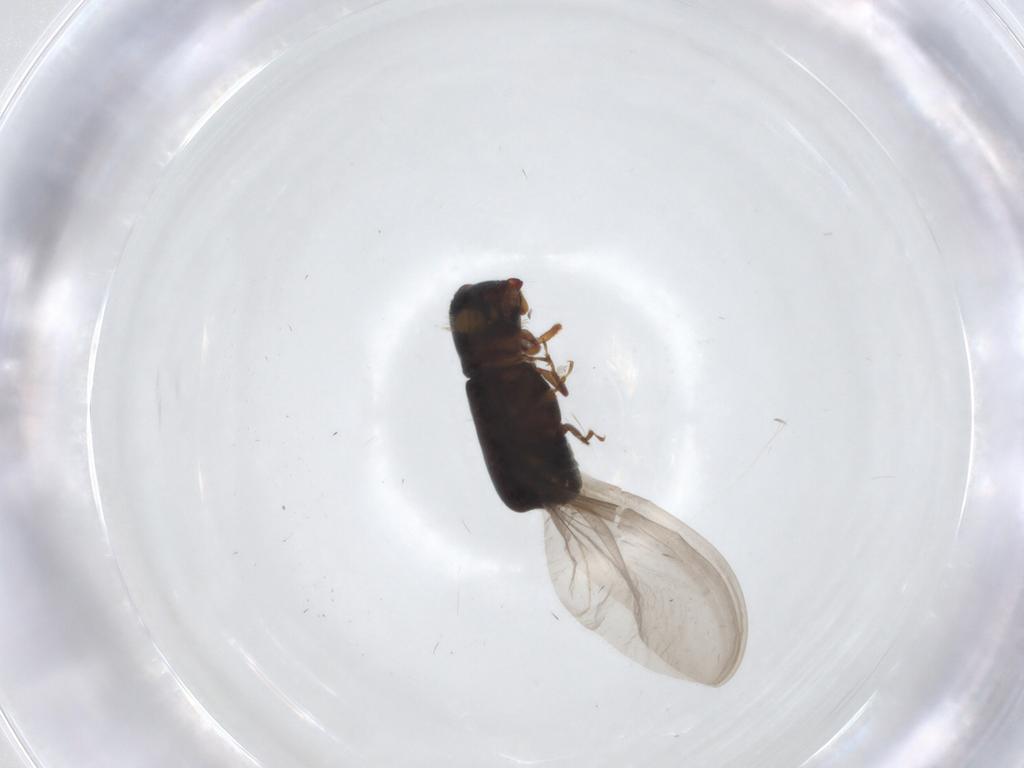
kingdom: Animalia
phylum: Arthropoda
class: Insecta
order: Coleoptera
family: Curculionidae
